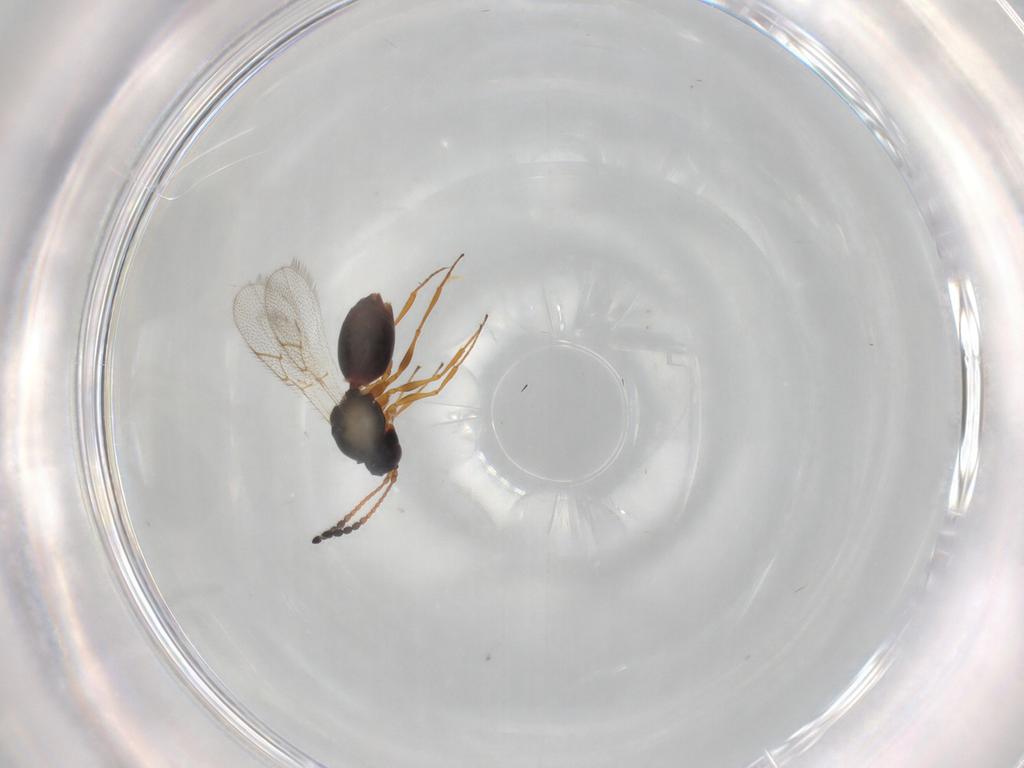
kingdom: Animalia
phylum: Arthropoda
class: Insecta
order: Hymenoptera
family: Figitidae
